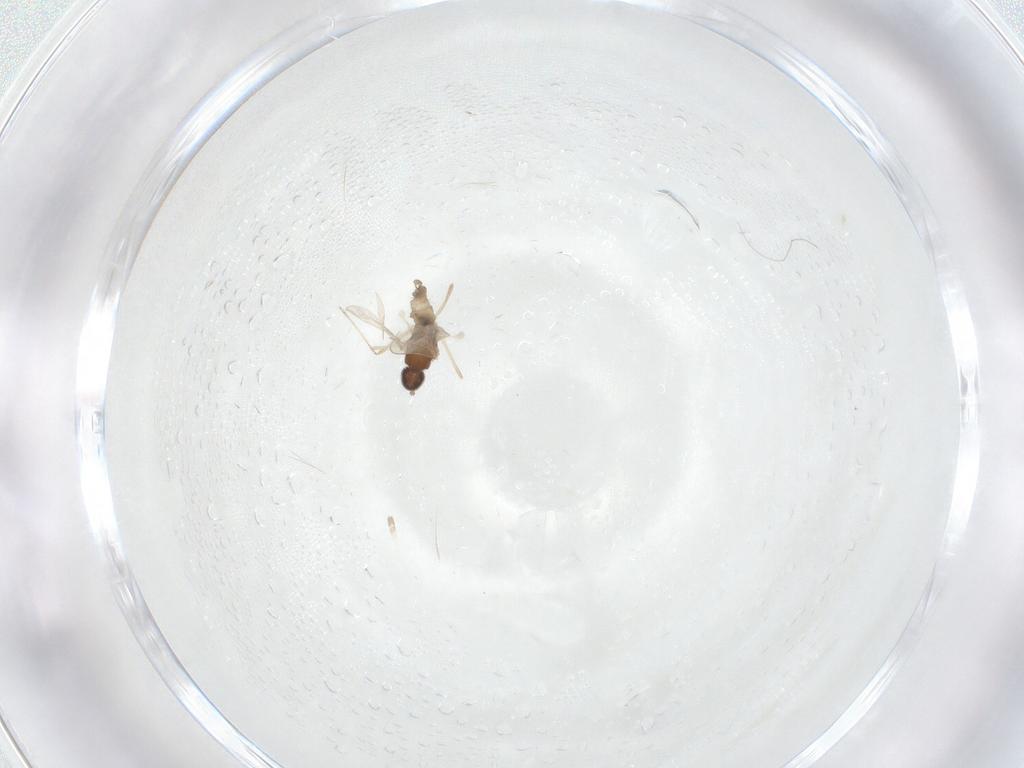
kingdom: Animalia
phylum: Arthropoda
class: Insecta
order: Diptera
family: Cecidomyiidae
